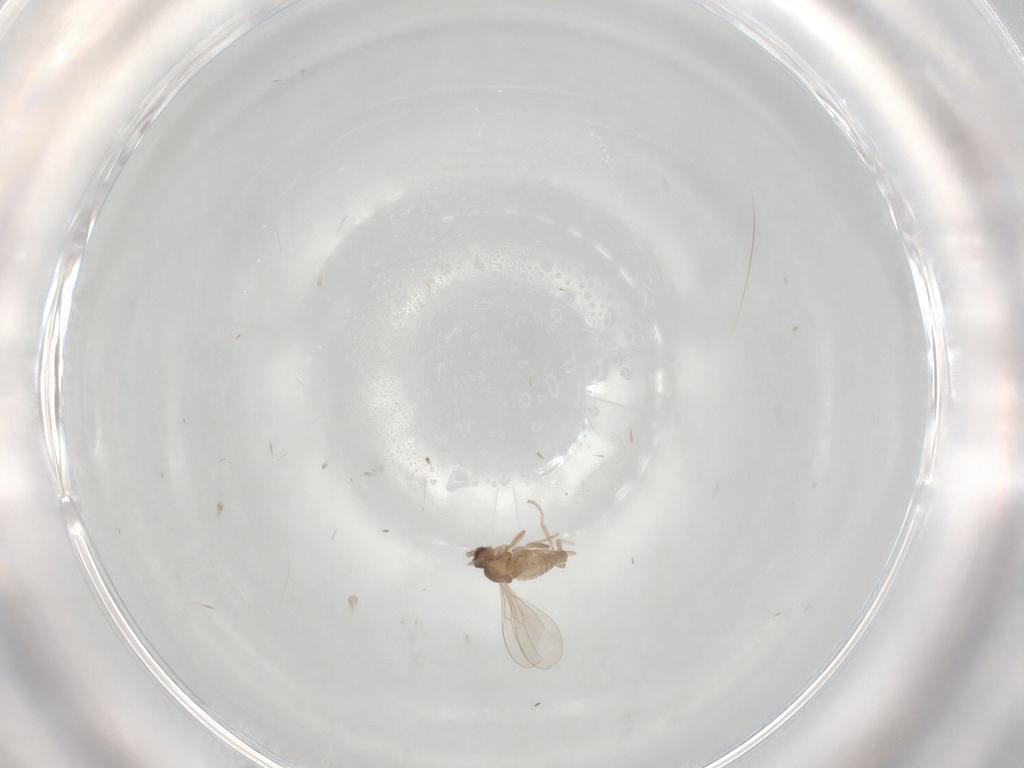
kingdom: Animalia
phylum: Arthropoda
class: Insecta
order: Diptera
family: Cecidomyiidae
